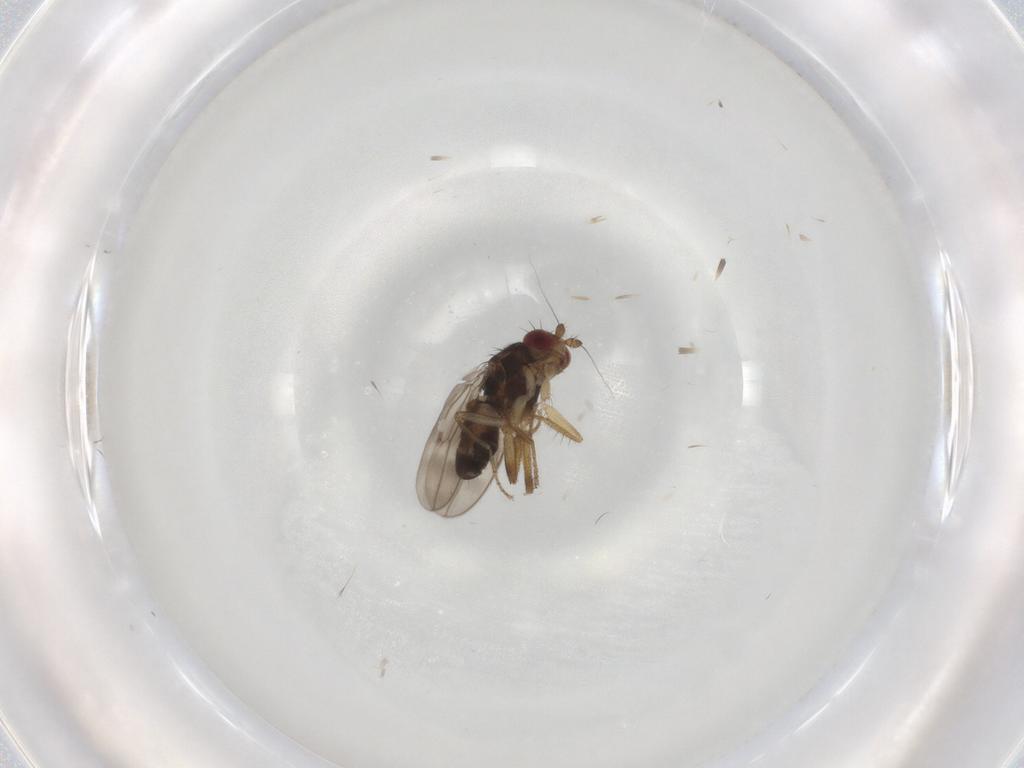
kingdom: Animalia
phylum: Arthropoda
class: Insecta
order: Diptera
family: Sphaeroceridae
